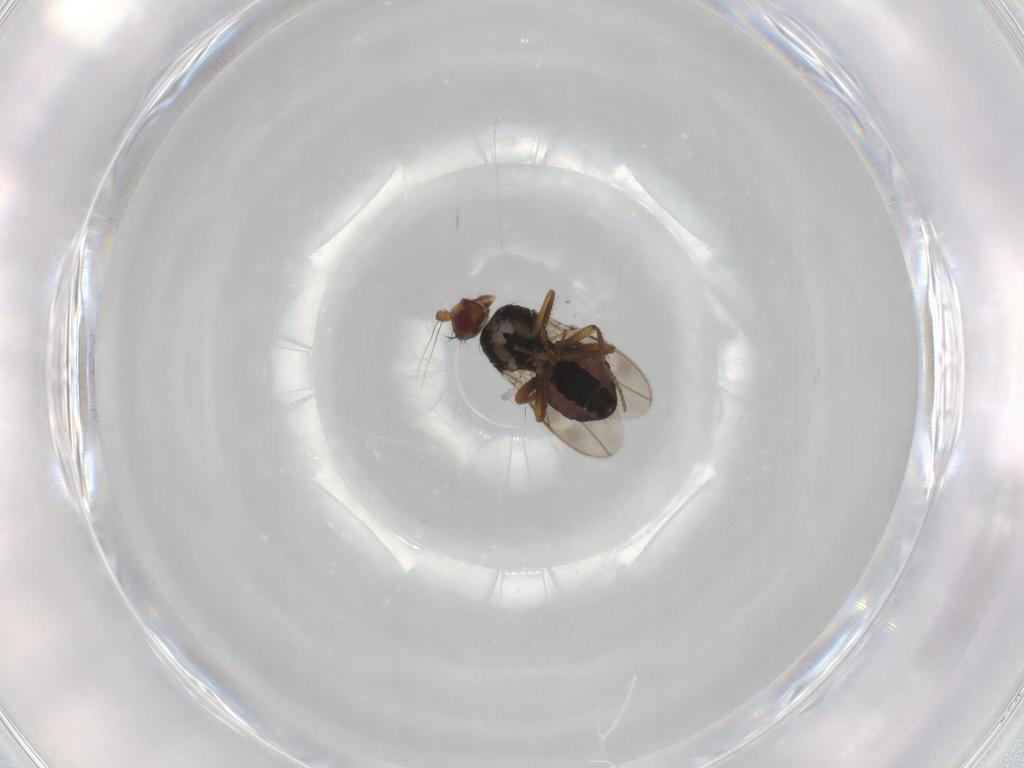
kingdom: Animalia
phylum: Arthropoda
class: Insecta
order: Diptera
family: Sphaeroceridae
